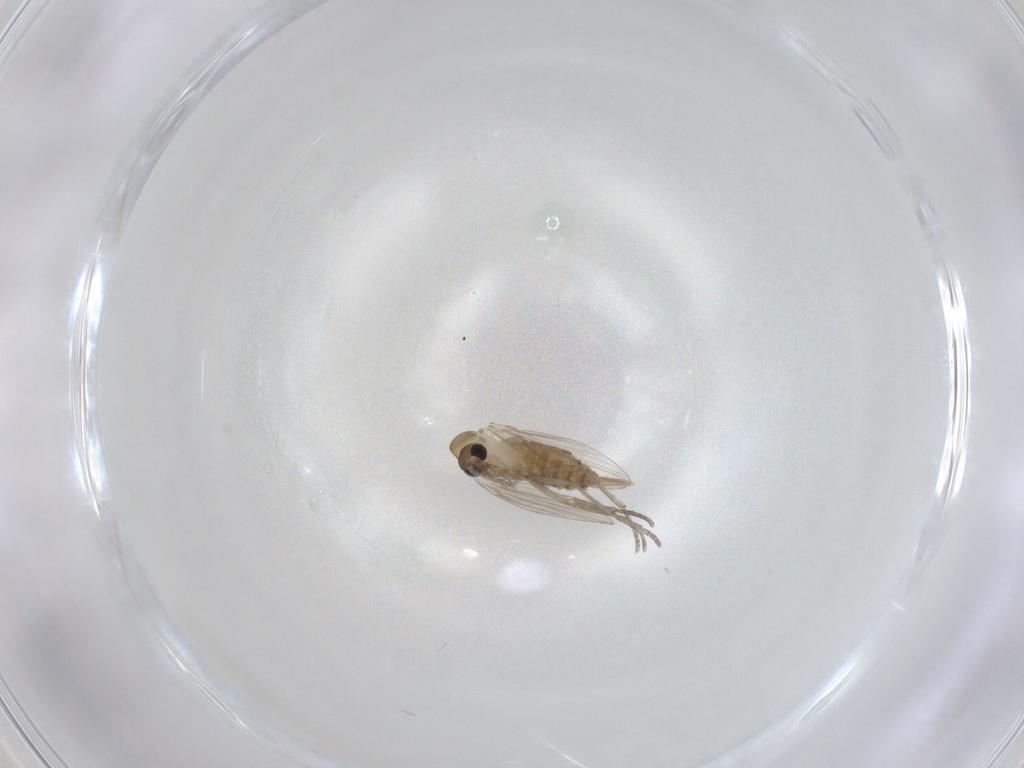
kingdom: Animalia
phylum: Arthropoda
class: Insecta
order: Diptera
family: Psychodidae
